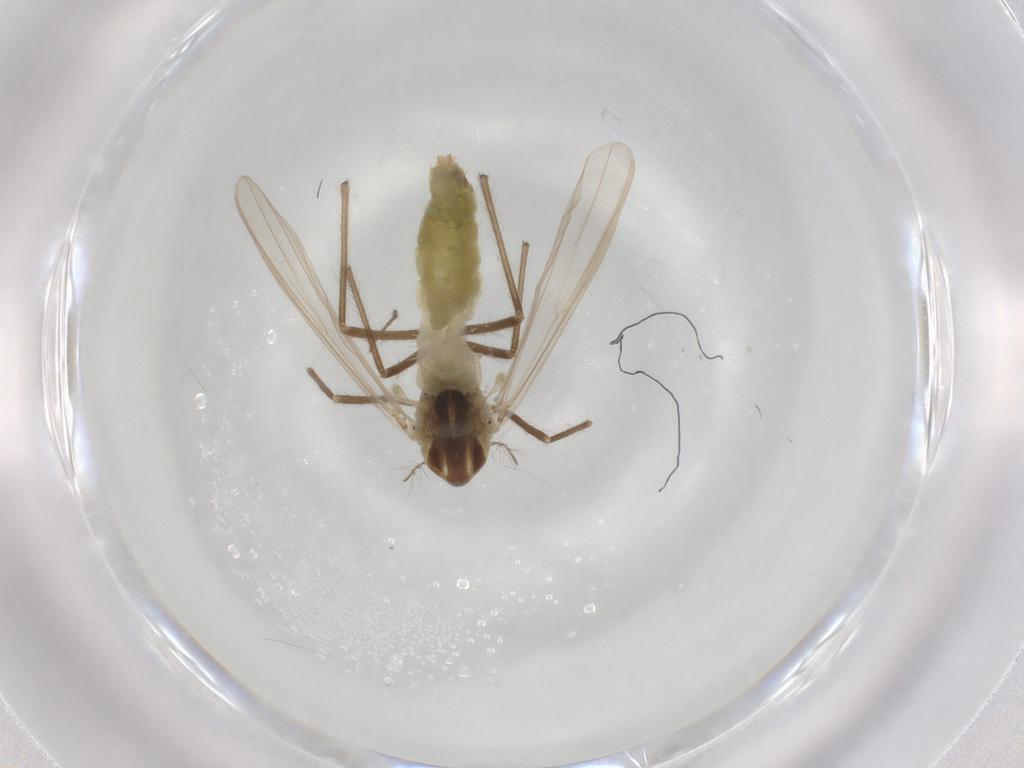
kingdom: Animalia
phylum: Arthropoda
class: Insecta
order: Diptera
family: Chironomidae
